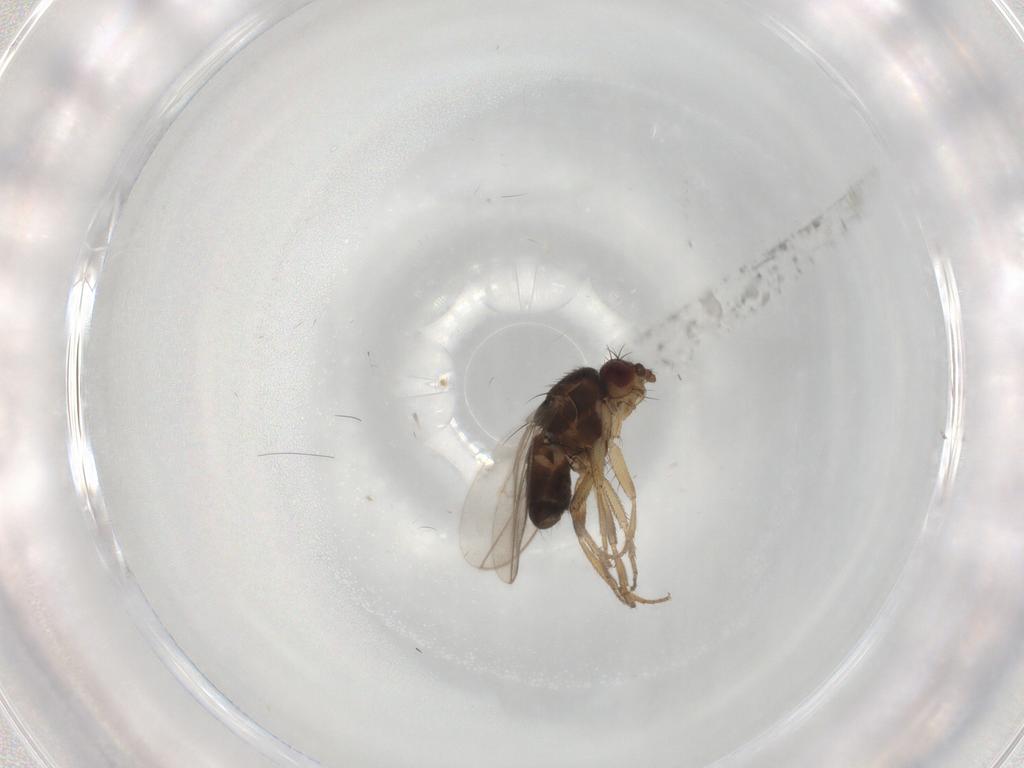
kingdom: Animalia
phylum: Arthropoda
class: Insecta
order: Diptera
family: Sphaeroceridae
